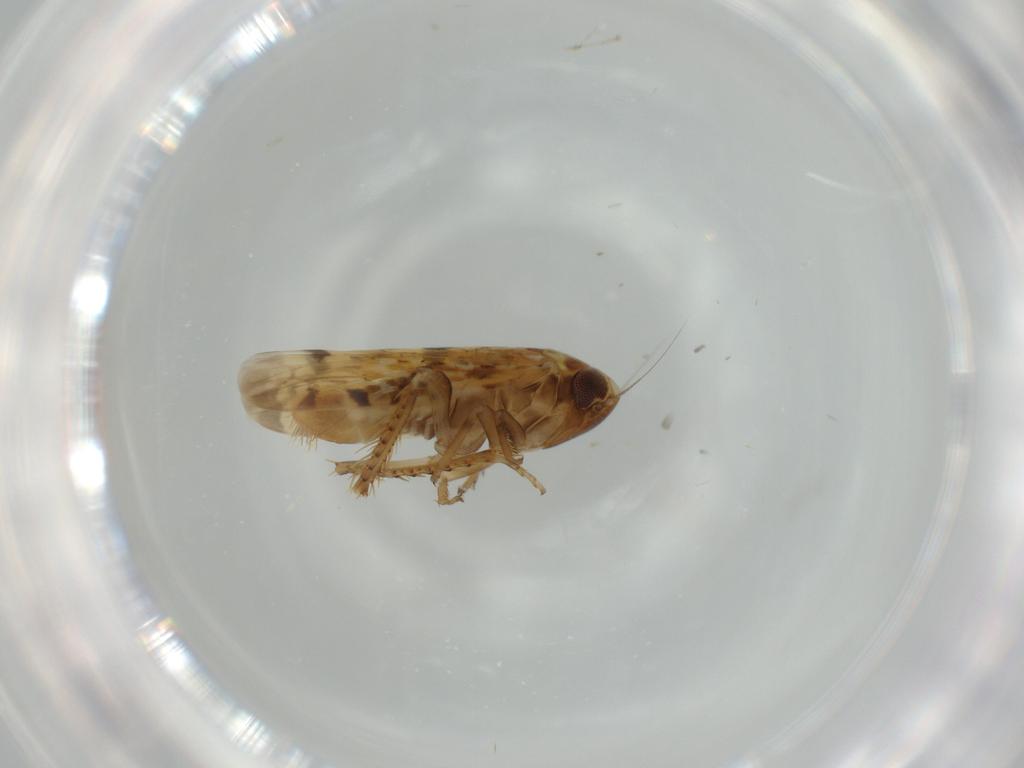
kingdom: Animalia
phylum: Arthropoda
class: Insecta
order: Hemiptera
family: Cicadellidae
